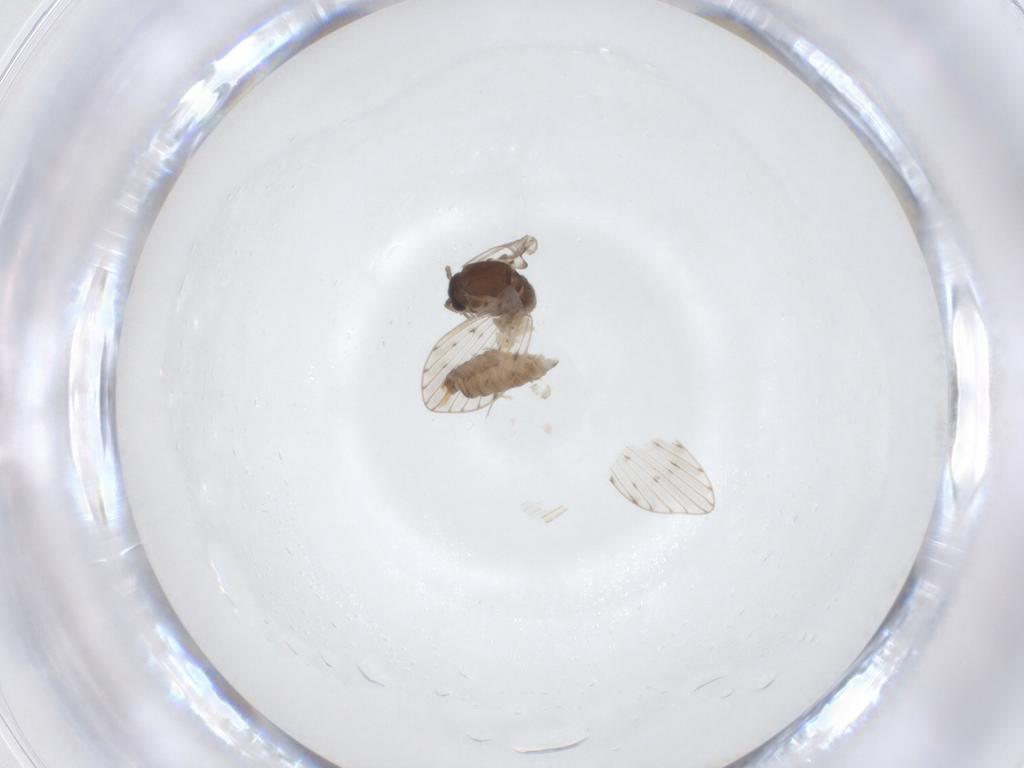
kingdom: Animalia
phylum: Arthropoda
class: Insecta
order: Diptera
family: Psychodidae
